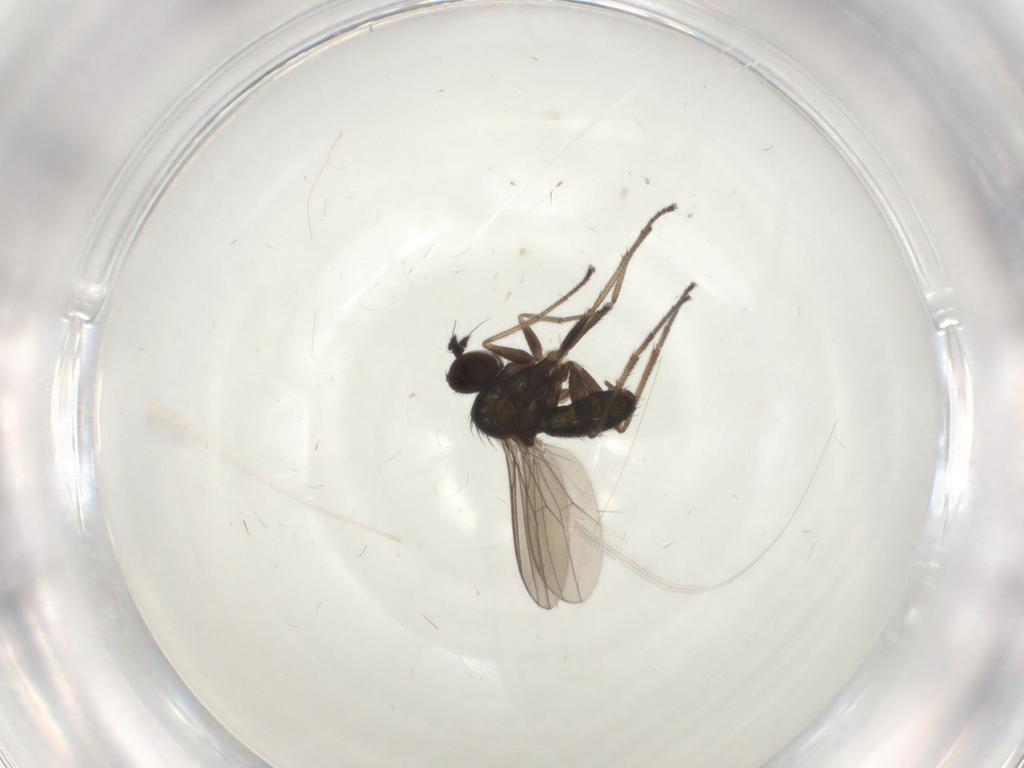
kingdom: Animalia
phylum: Arthropoda
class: Insecta
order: Diptera
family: Dolichopodidae
